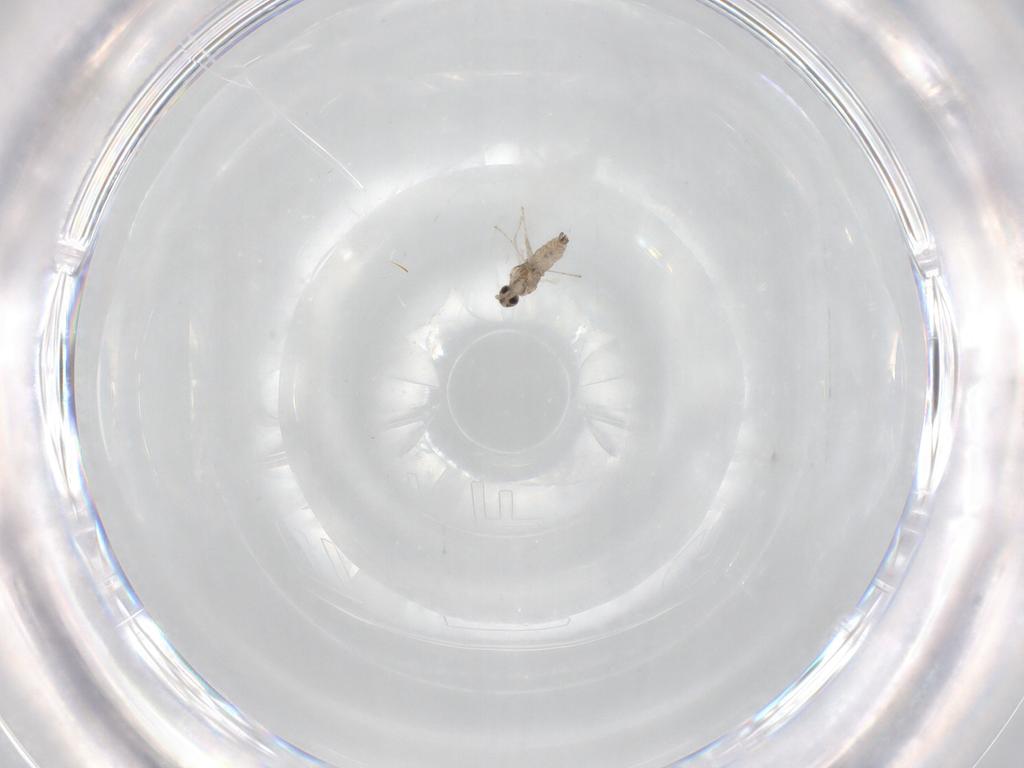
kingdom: Animalia
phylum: Arthropoda
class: Insecta
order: Diptera
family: Cecidomyiidae
